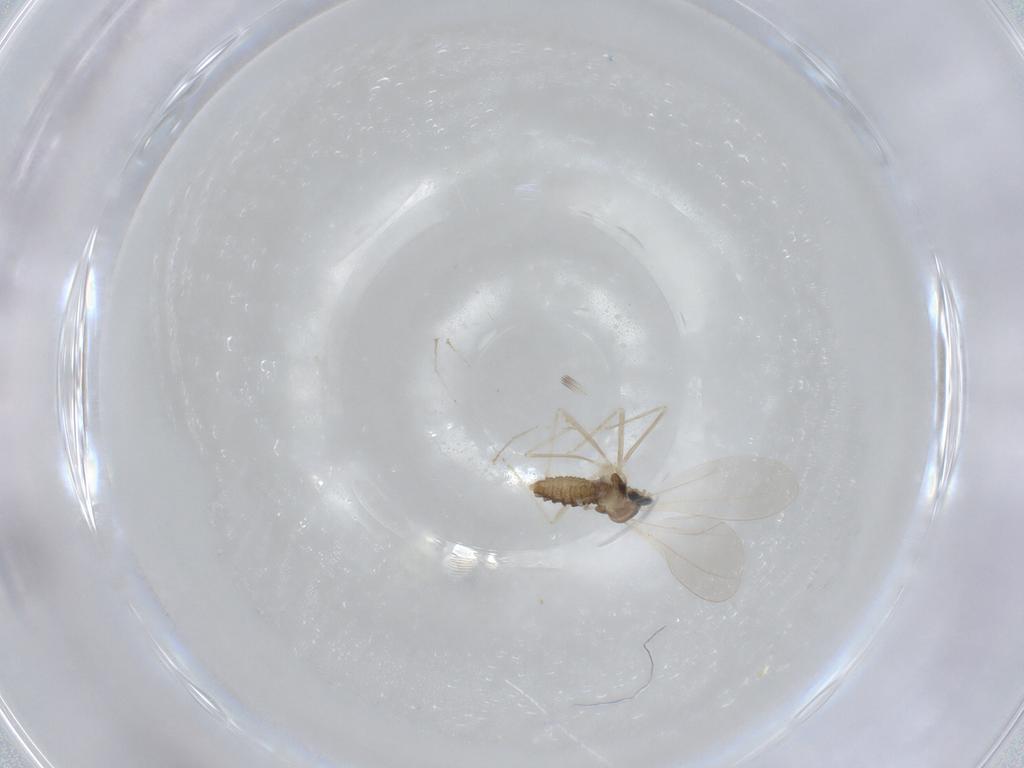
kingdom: Animalia
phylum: Arthropoda
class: Insecta
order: Diptera
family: Cecidomyiidae
